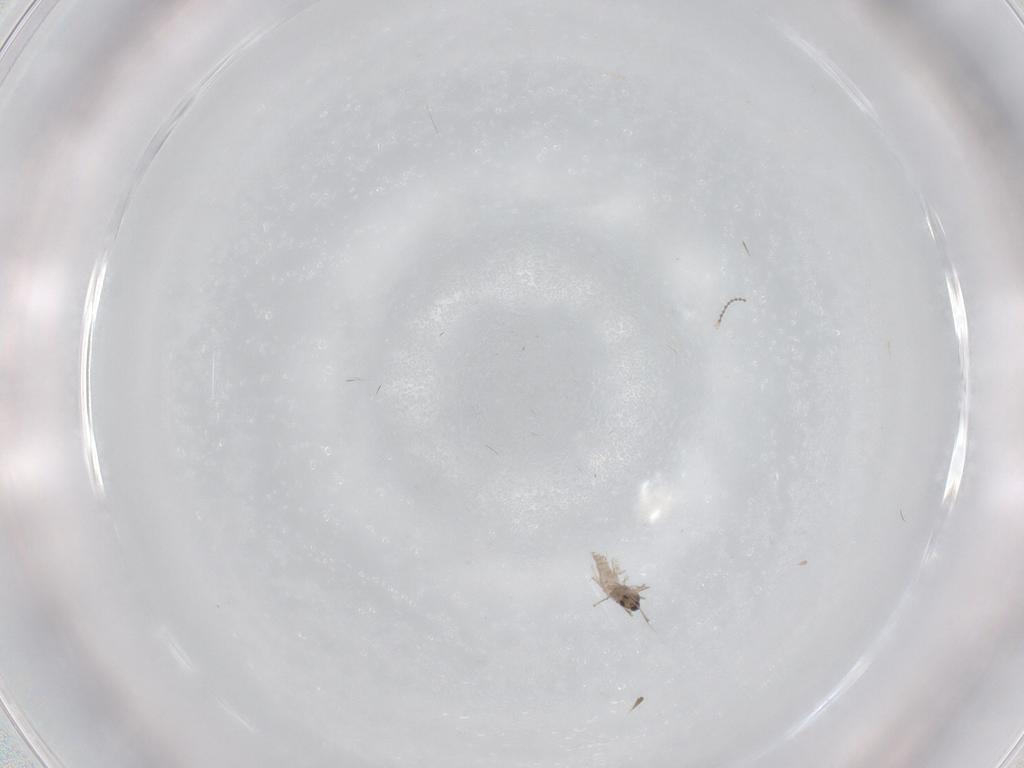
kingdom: Animalia
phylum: Arthropoda
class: Insecta
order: Diptera
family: Cecidomyiidae
